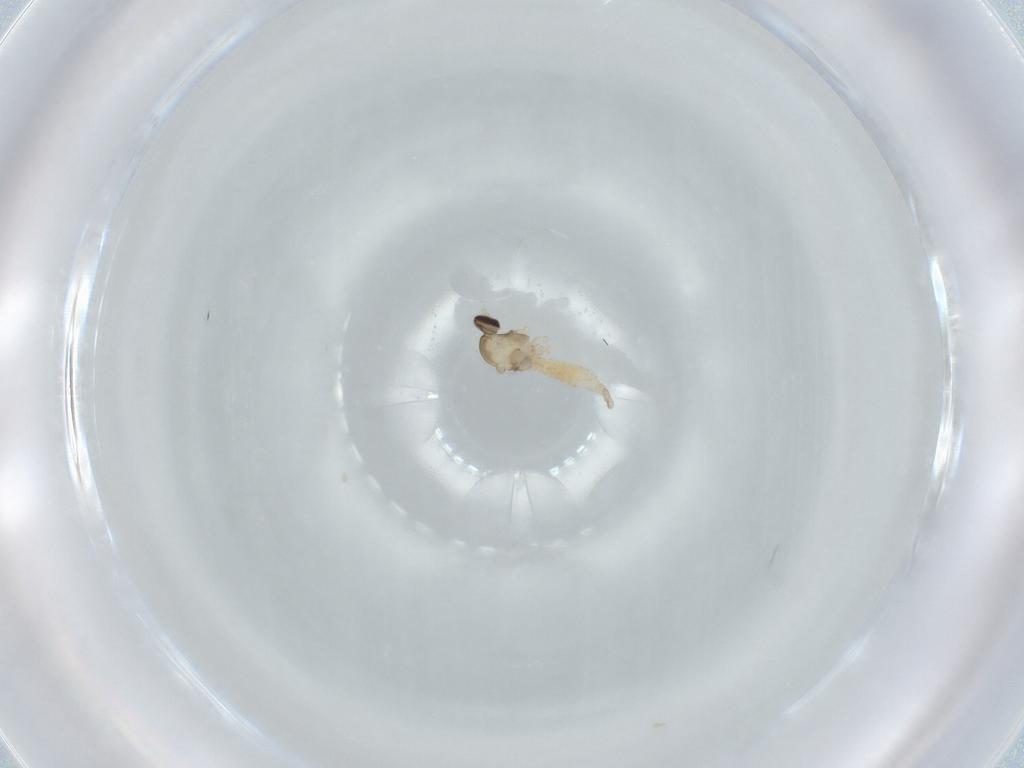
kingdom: Animalia
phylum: Arthropoda
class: Insecta
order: Diptera
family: Cecidomyiidae
